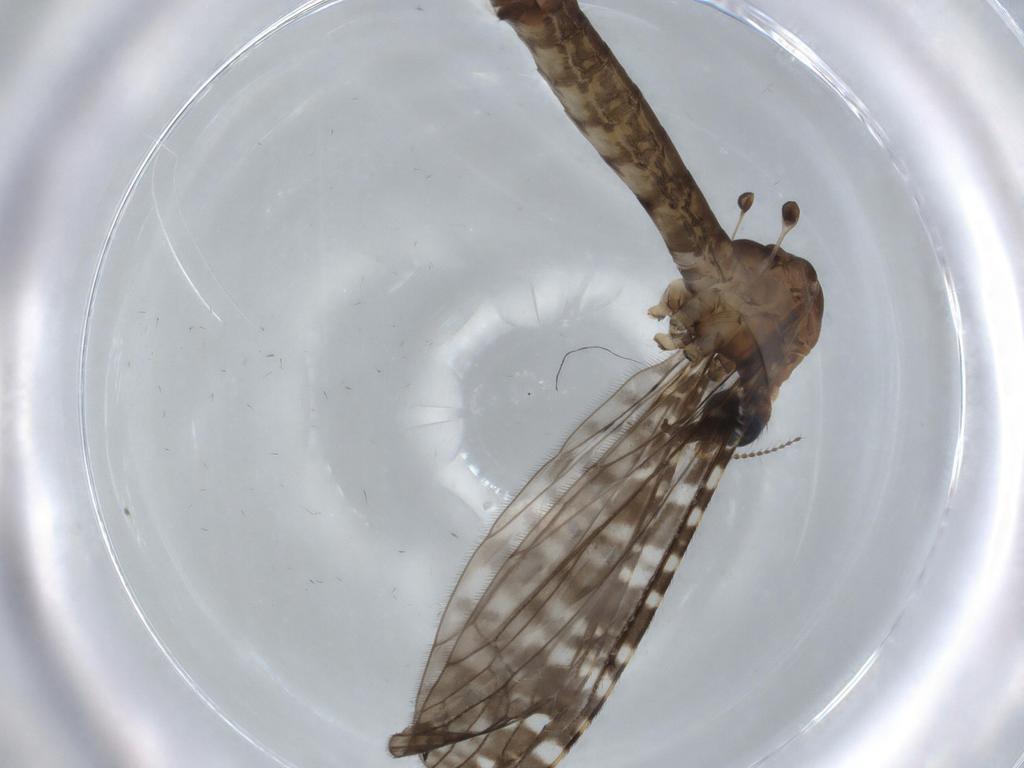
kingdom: Animalia
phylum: Arthropoda
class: Insecta
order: Diptera
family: Sciaridae
